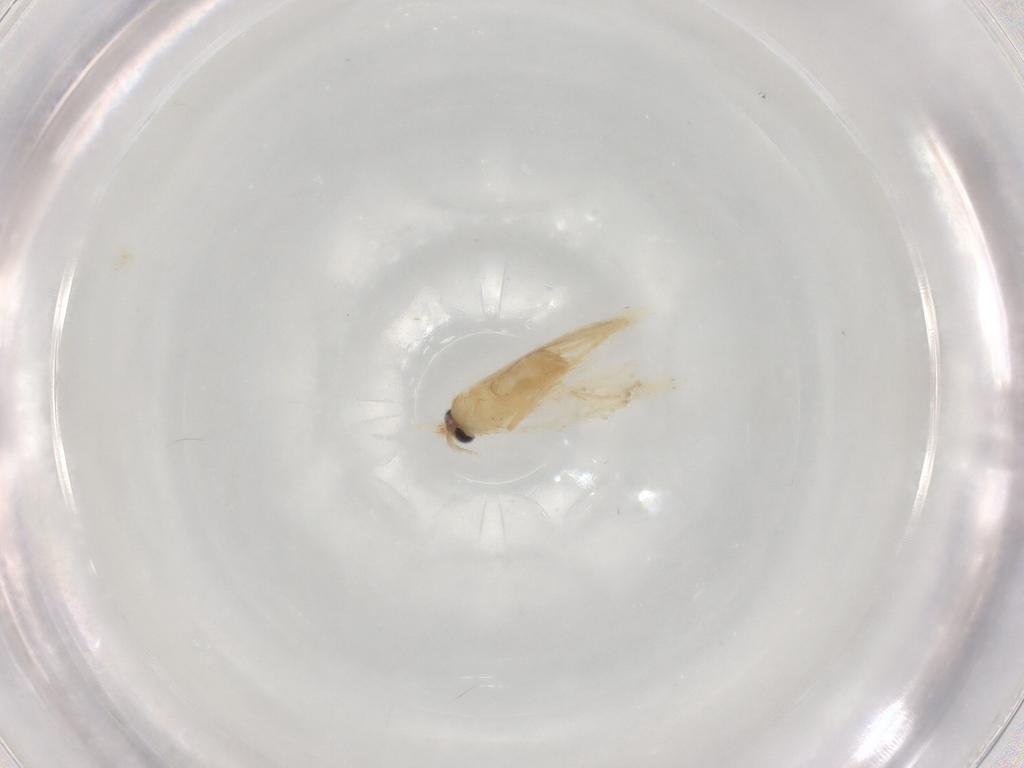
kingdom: Animalia
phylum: Arthropoda
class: Insecta
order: Lepidoptera
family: Nepticulidae
